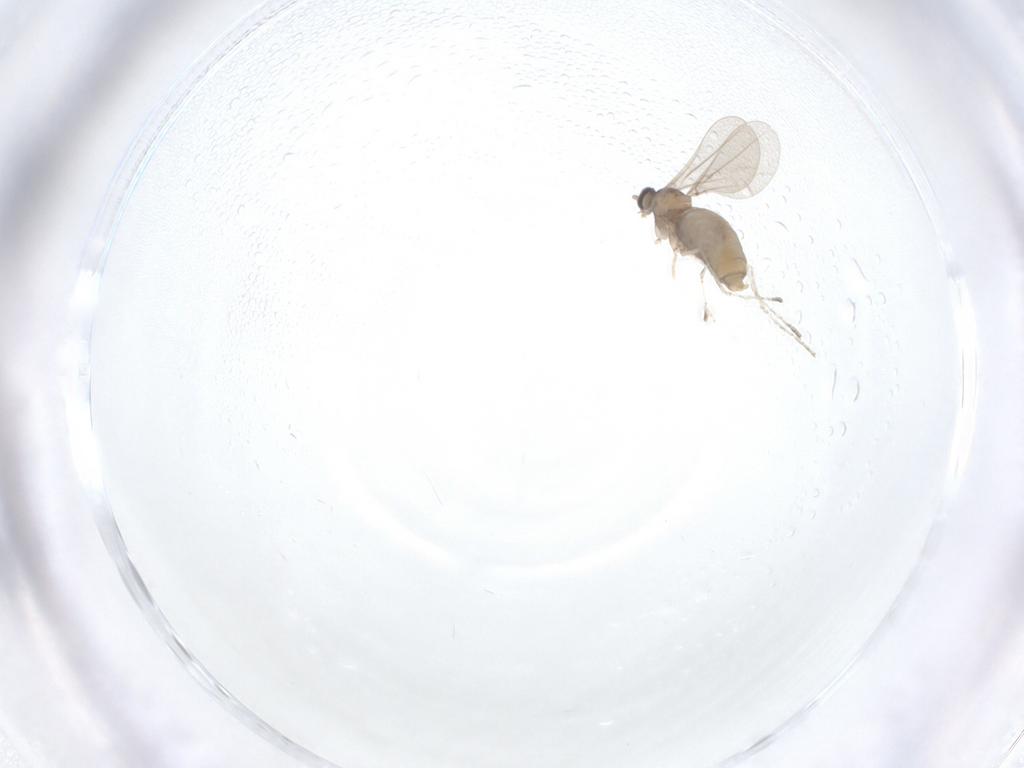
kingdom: Animalia
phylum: Arthropoda
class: Insecta
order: Diptera
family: Cecidomyiidae
